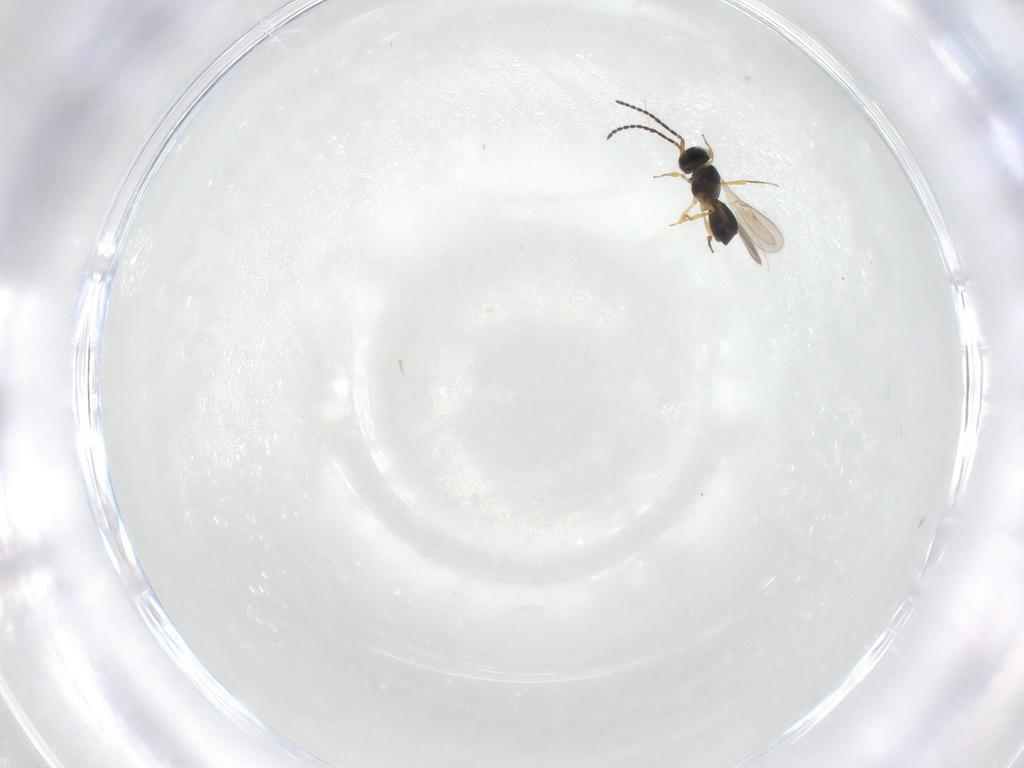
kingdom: Animalia
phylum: Arthropoda
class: Insecta
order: Hymenoptera
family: Scelionidae
